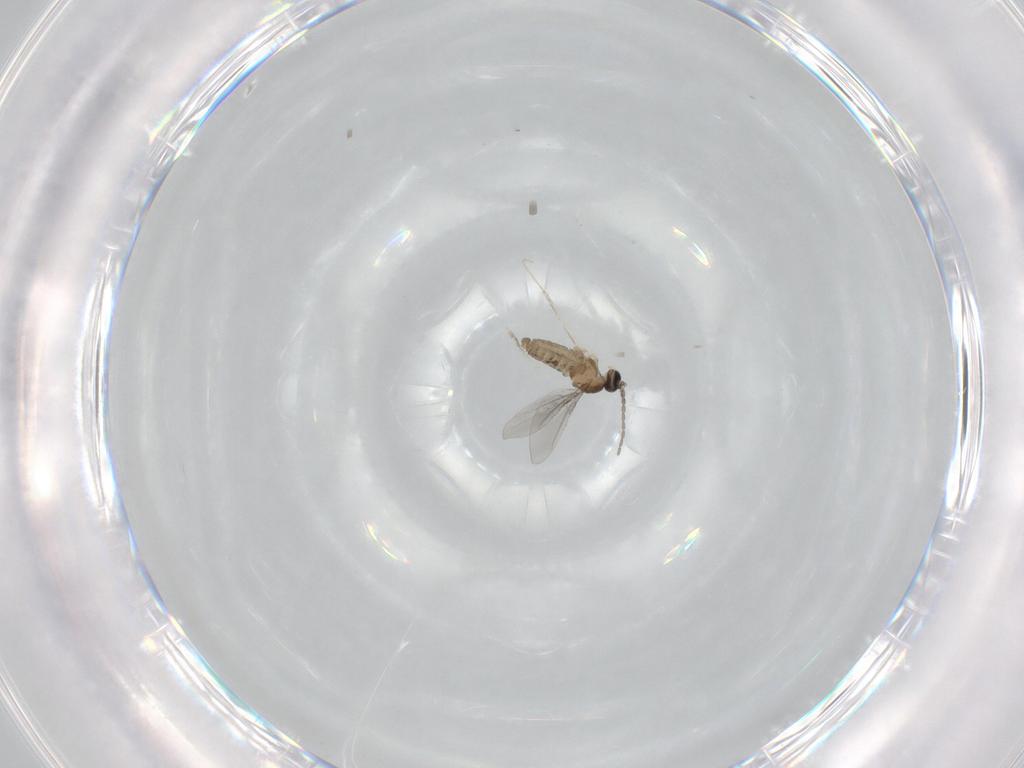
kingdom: Animalia
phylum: Arthropoda
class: Insecta
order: Diptera
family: Cecidomyiidae
